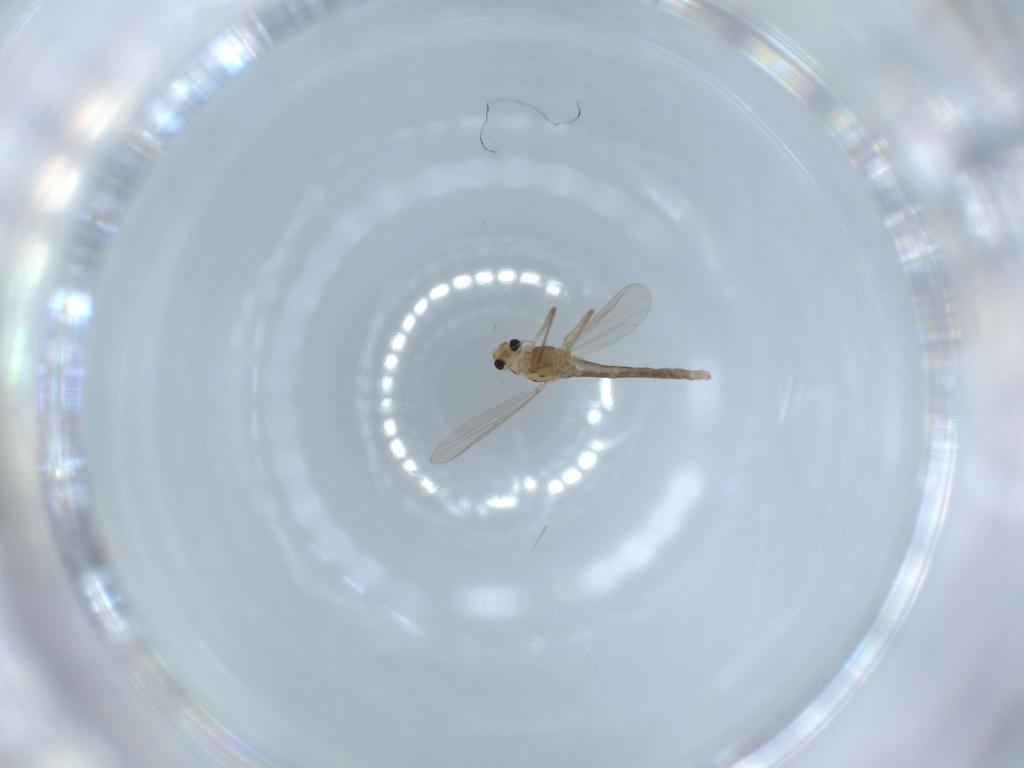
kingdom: Animalia
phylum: Arthropoda
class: Insecta
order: Diptera
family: Chironomidae
